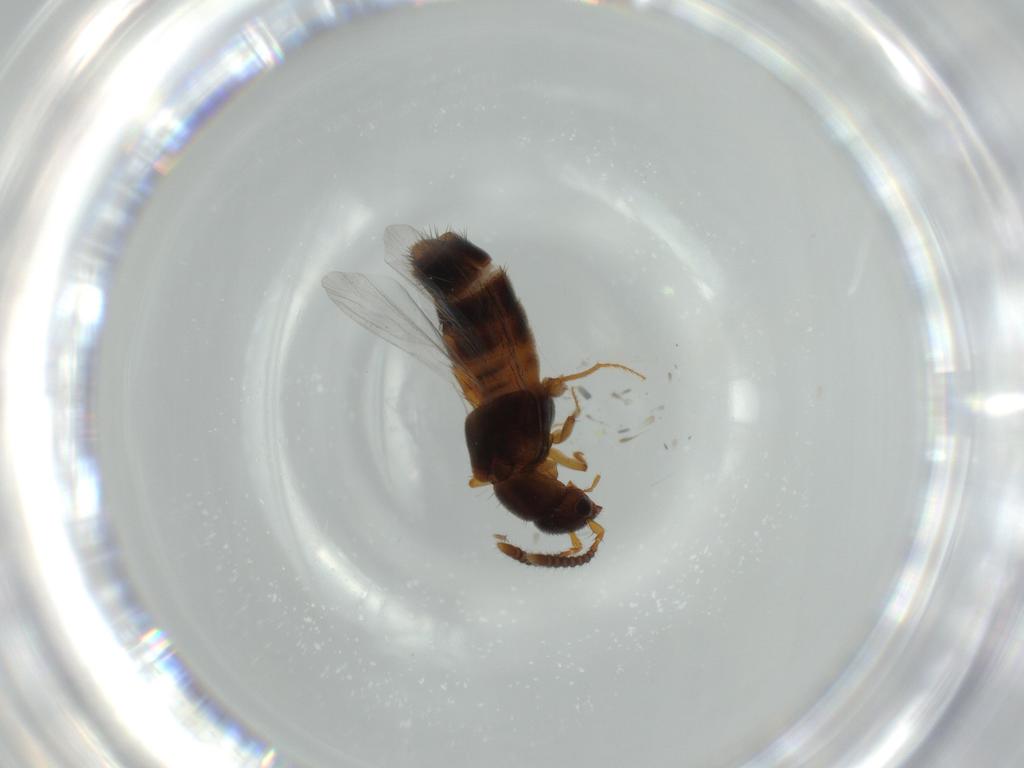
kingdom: Animalia
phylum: Arthropoda
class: Insecta
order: Coleoptera
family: Staphylinidae
